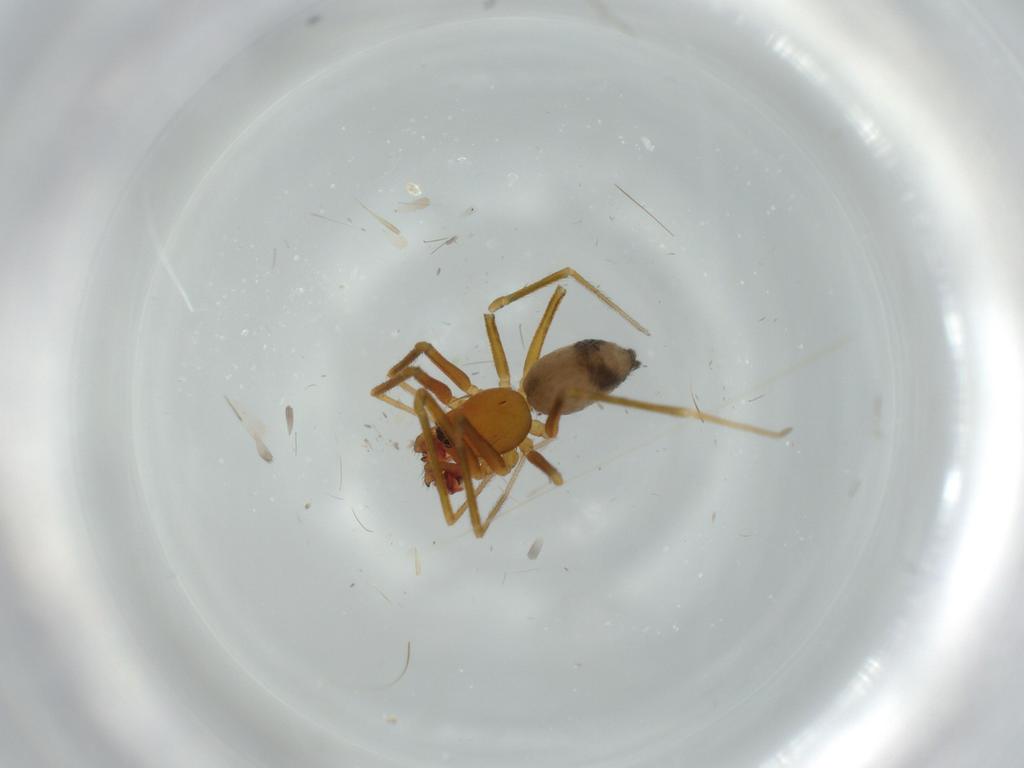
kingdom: Animalia
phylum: Arthropoda
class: Arachnida
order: Araneae
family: Linyphiidae
